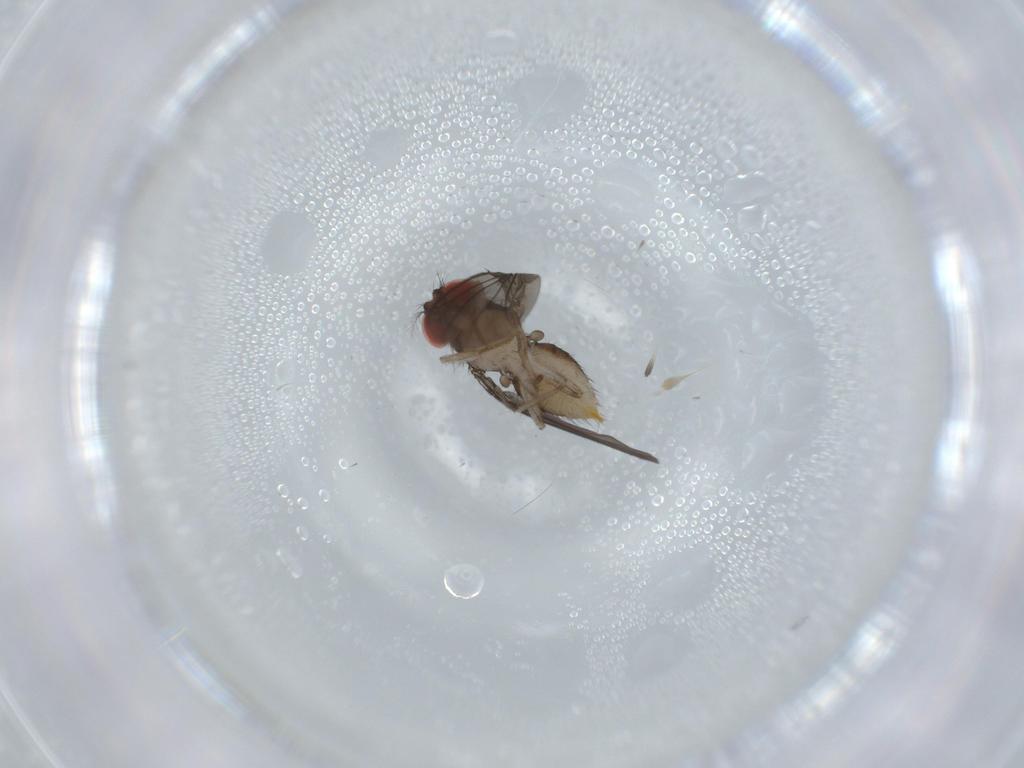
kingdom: Animalia
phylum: Arthropoda
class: Insecta
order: Diptera
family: Drosophilidae
